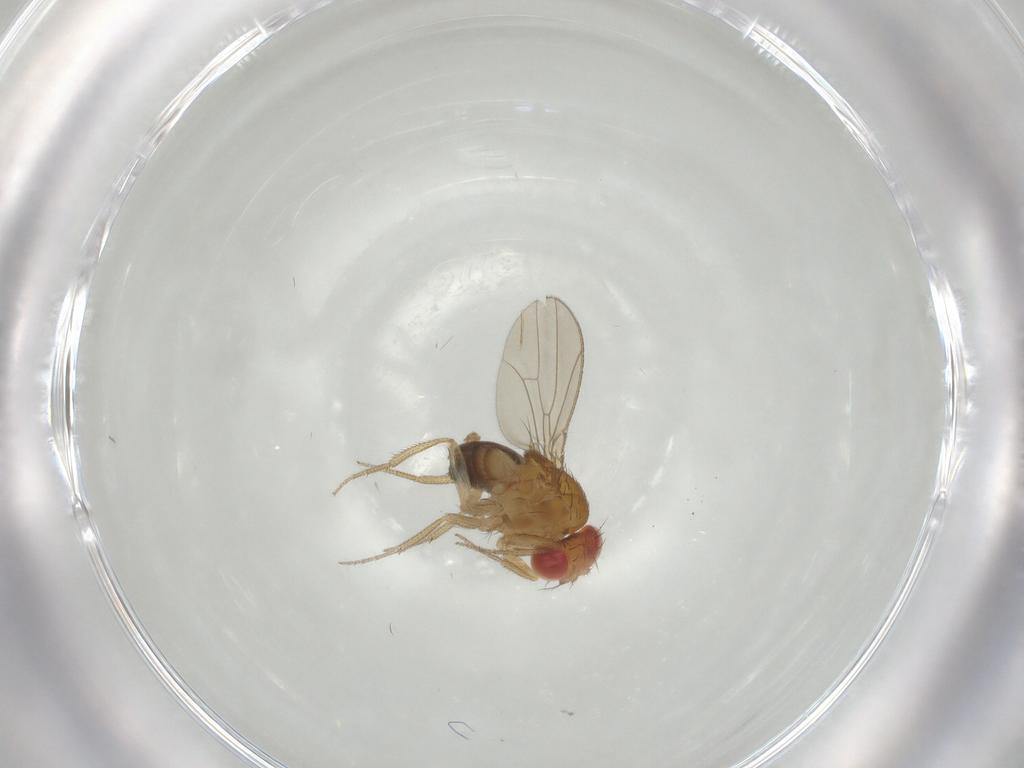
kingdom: Animalia
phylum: Arthropoda
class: Insecta
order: Diptera
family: Drosophilidae
